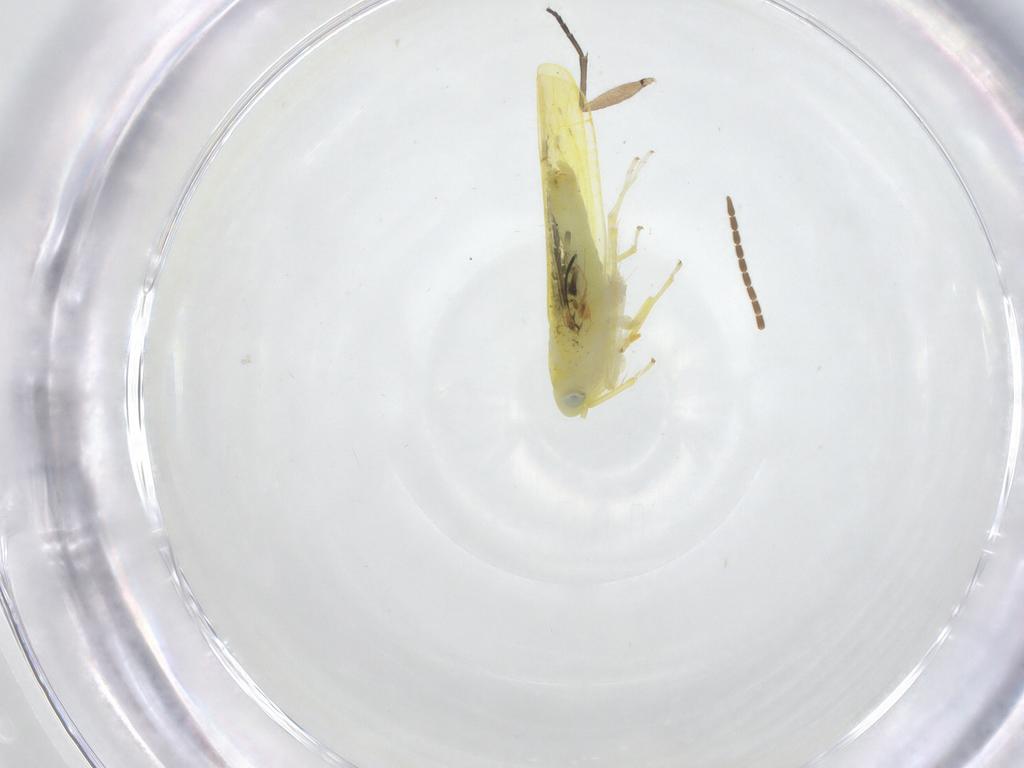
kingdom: Animalia
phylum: Arthropoda
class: Insecta
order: Hemiptera
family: Cicadellidae
